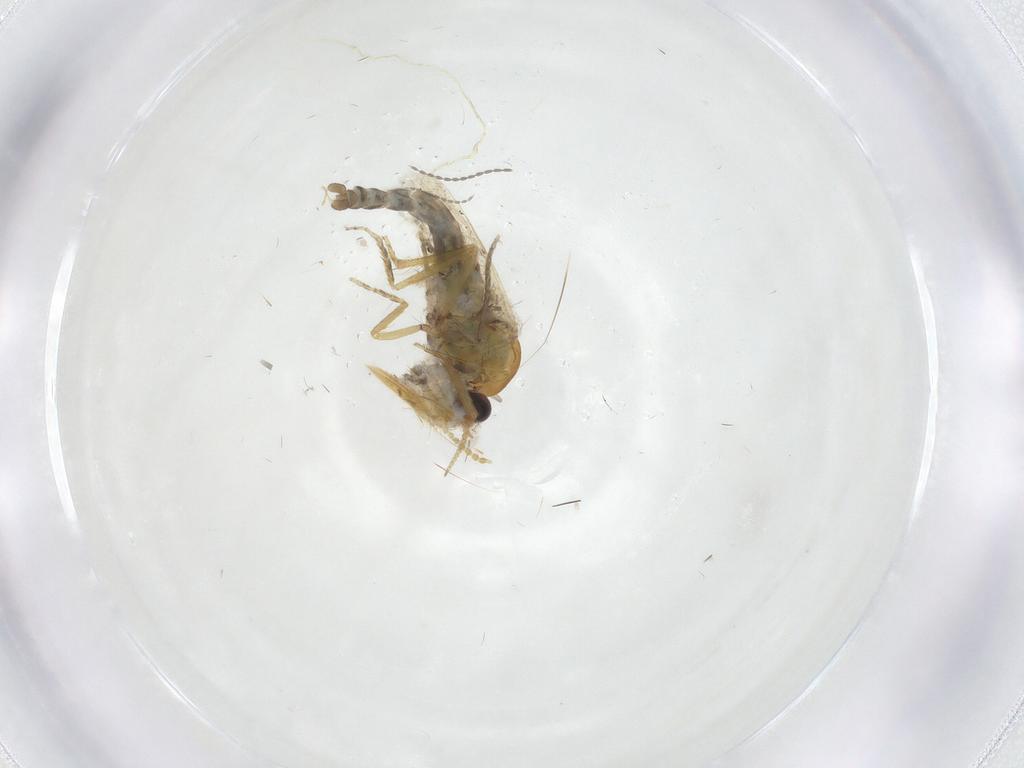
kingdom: Animalia
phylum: Arthropoda
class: Insecta
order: Diptera
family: Ceratopogonidae
